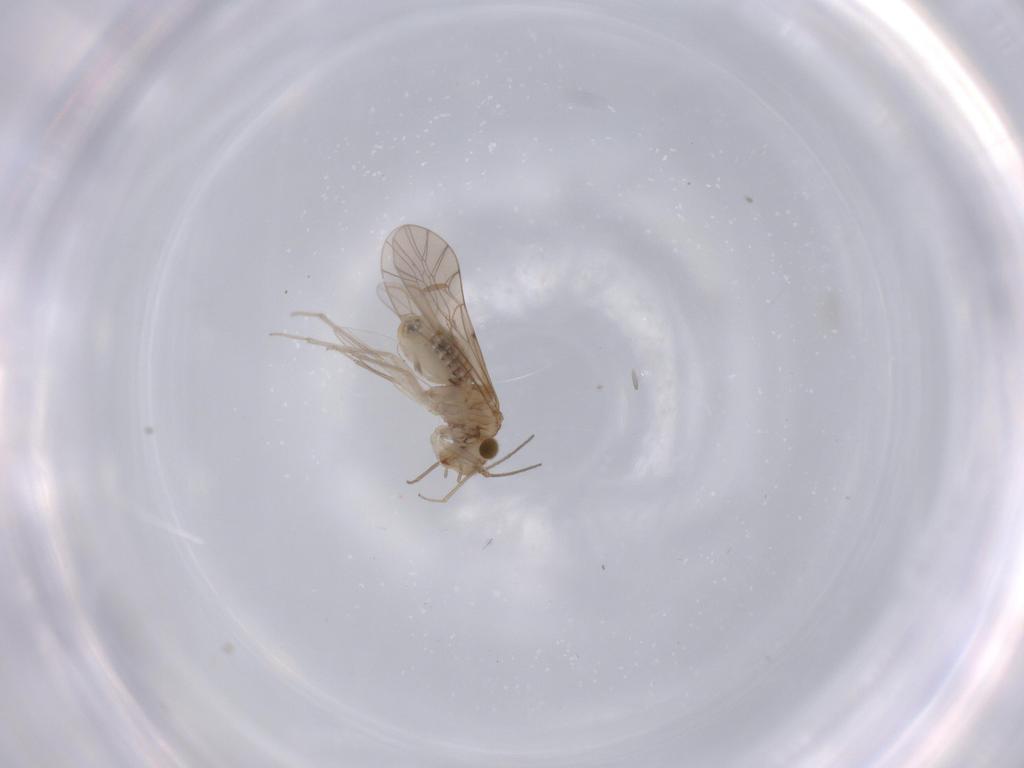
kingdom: Animalia
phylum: Arthropoda
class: Insecta
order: Psocodea
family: Lachesillidae
